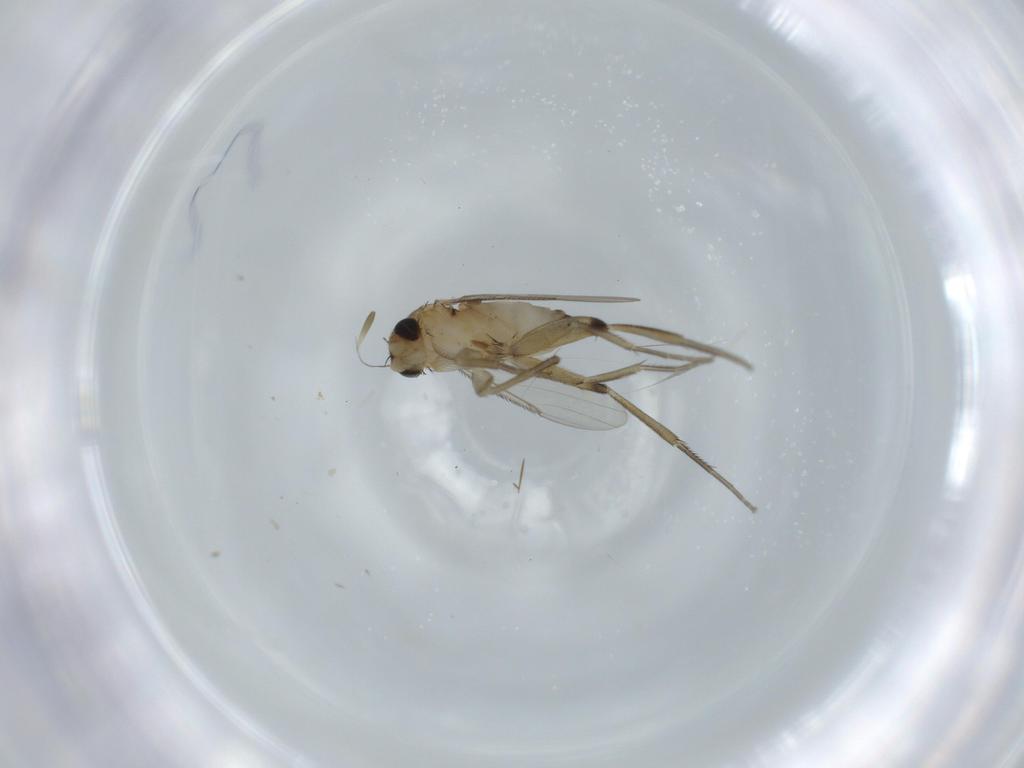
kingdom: Animalia
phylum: Arthropoda
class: Insecta
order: Diptera
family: Phoridae
